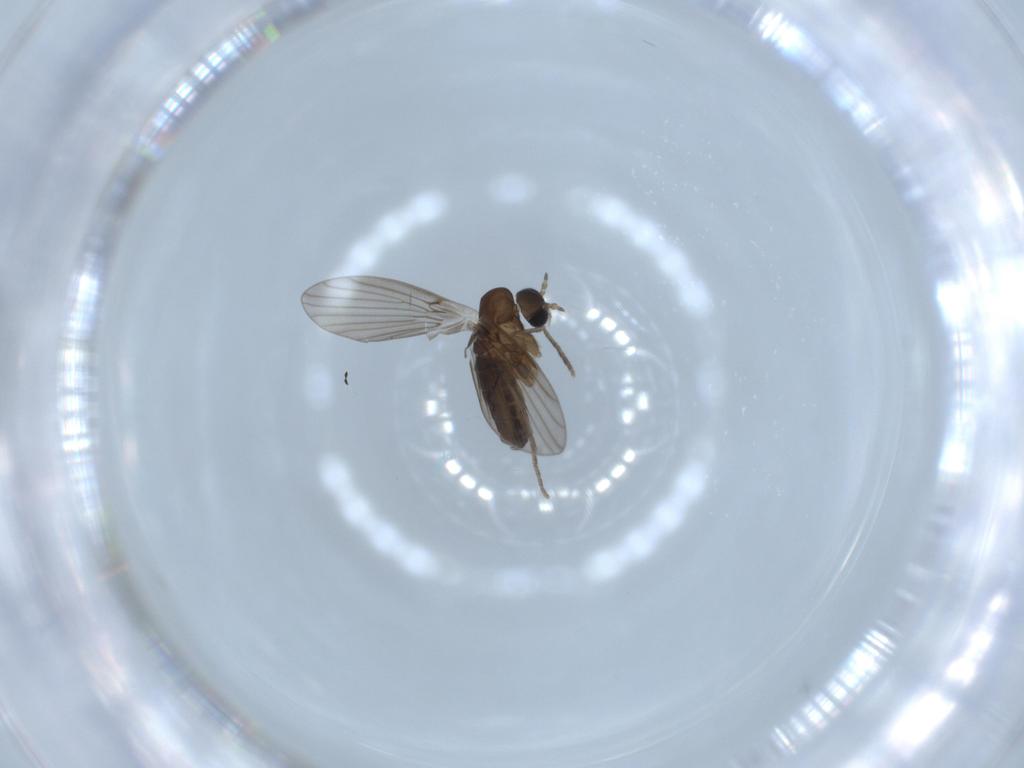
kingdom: Animalia
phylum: Arthropoda
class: Insecta
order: Diptera
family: Psychodidae
